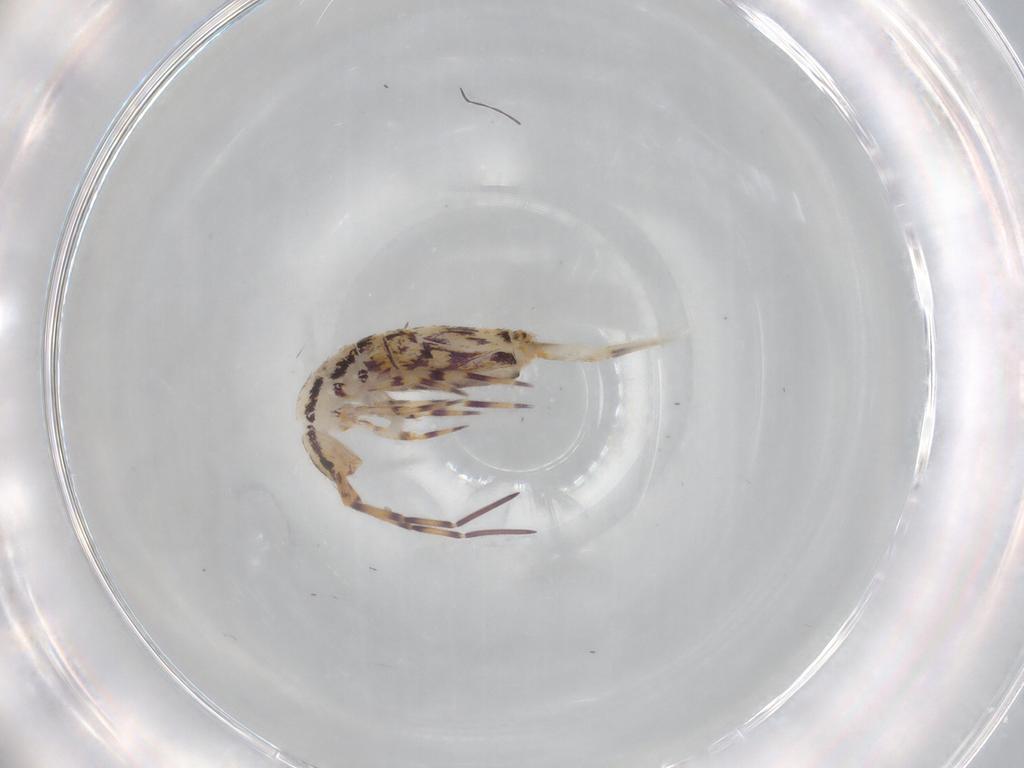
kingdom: Animalia
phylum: Arthropoda
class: Collembola
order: Entomobryomorpha
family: Entomobryidae
